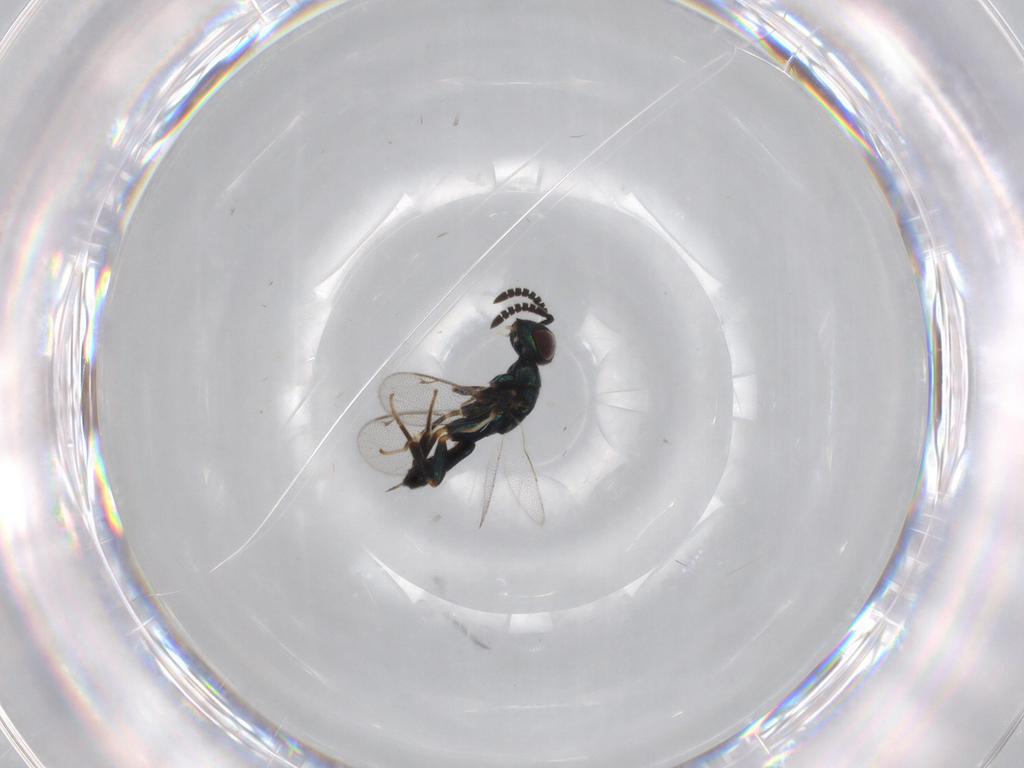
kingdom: Animalia
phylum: Arthropoda
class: Insecta
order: Hymenoptera
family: Cleonyminae
